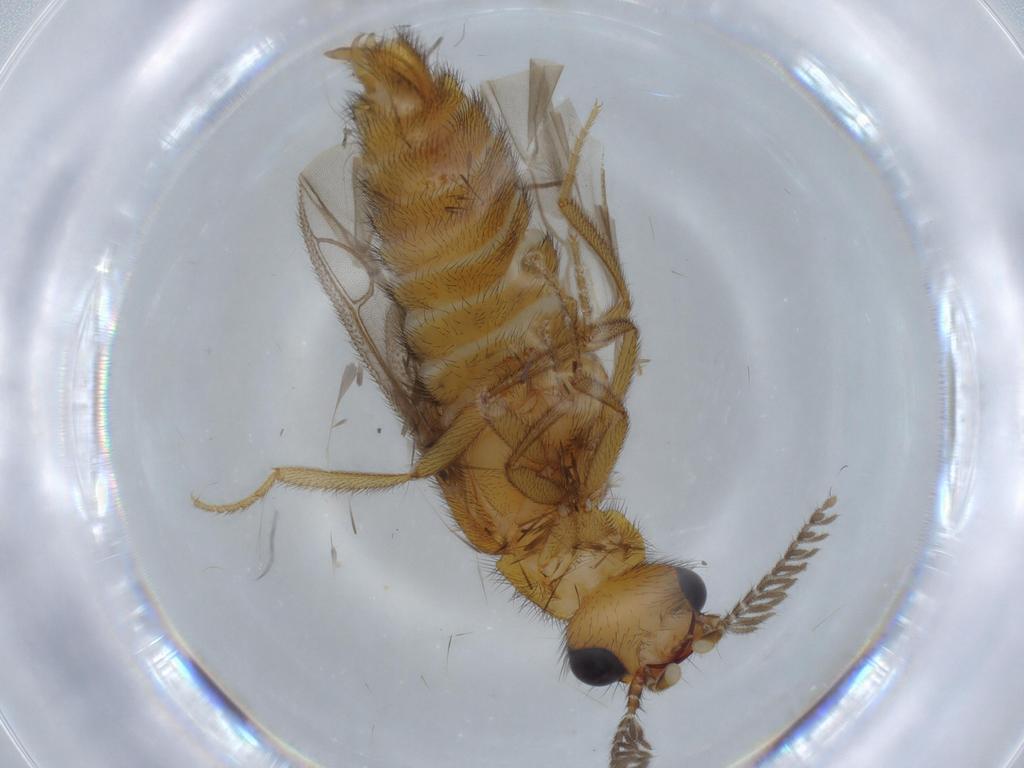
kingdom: Animalia
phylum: Arthropoda
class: Insecta
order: Coleoptera
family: Phengodidae
